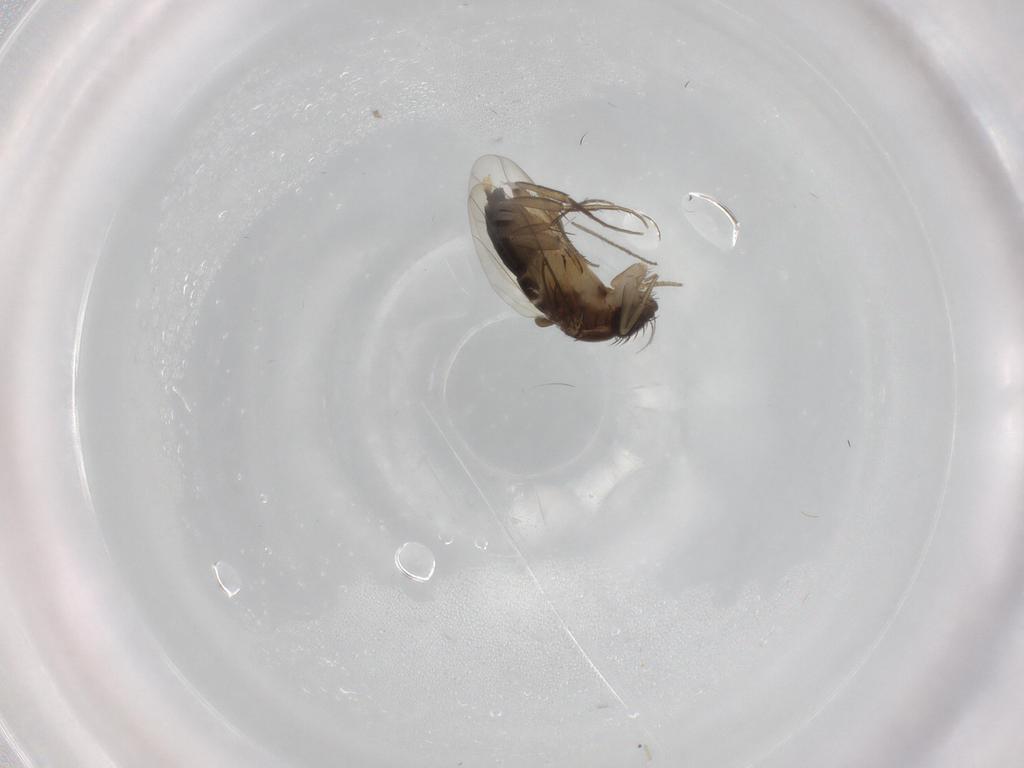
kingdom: Animalia
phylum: Arthropoda
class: Insecta
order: Diptera
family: Phoridae
